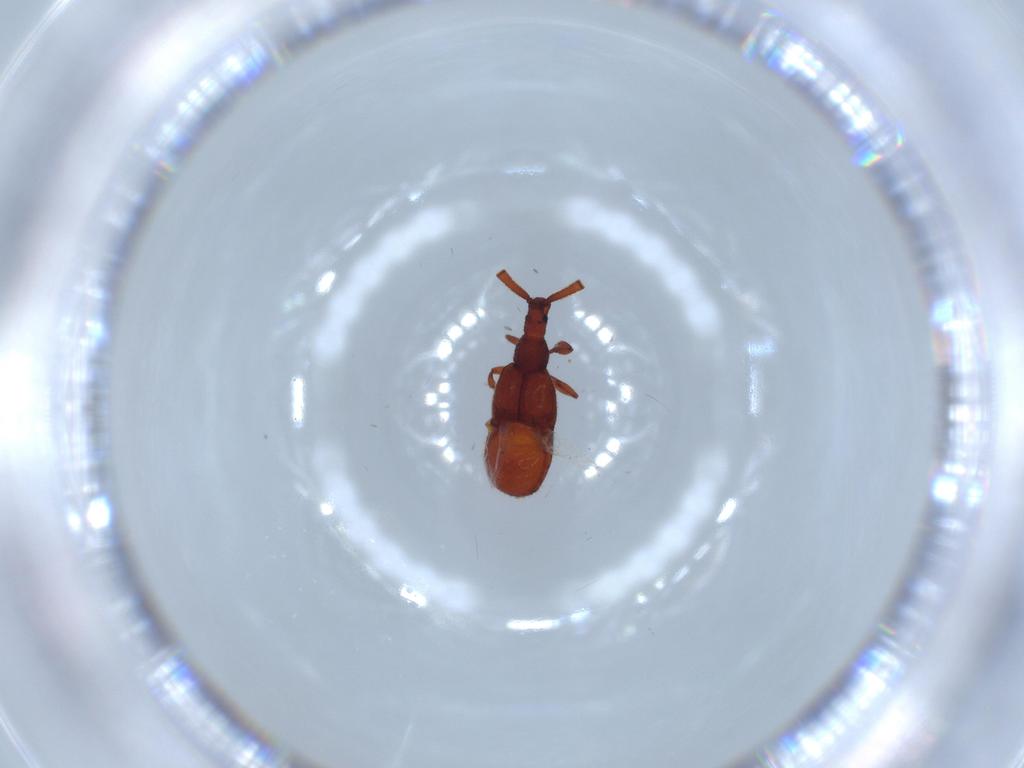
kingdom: Animalia
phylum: Arthropoda
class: Insecta
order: Coleoptera
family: Staphylinidae
